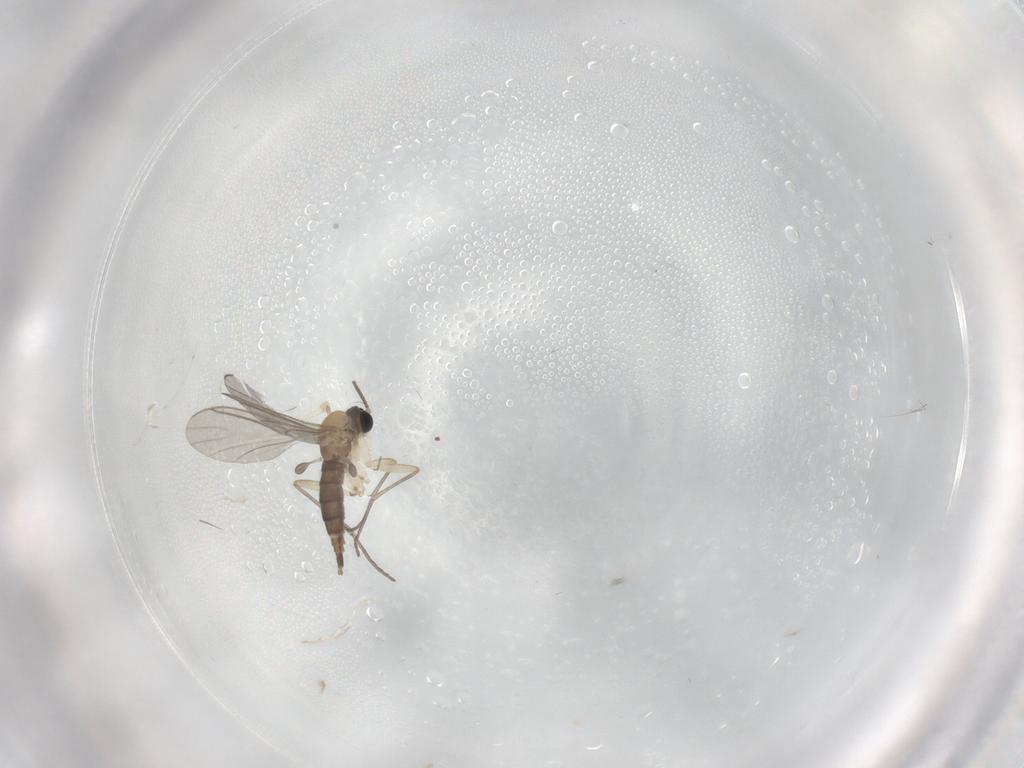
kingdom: Animalia
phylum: Arthropoda
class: Insecta
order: Diptera
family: Sciaridae
